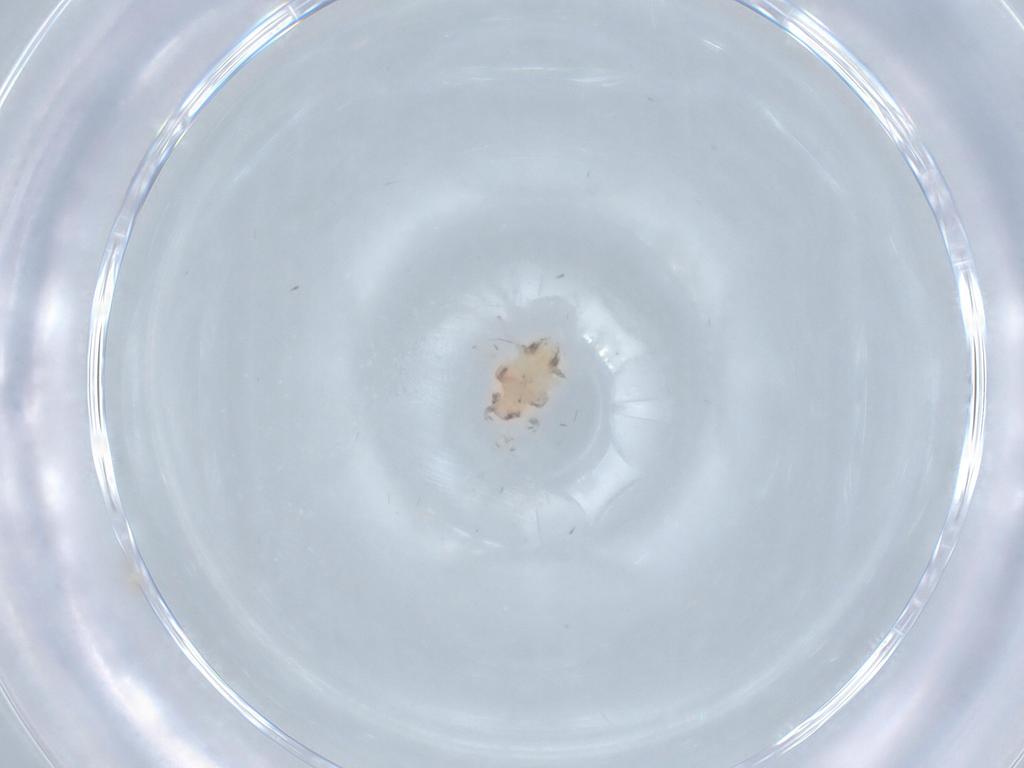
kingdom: Animalia
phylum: Arthropoda
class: Insecta
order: Hemiptera
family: Nogodinidae
